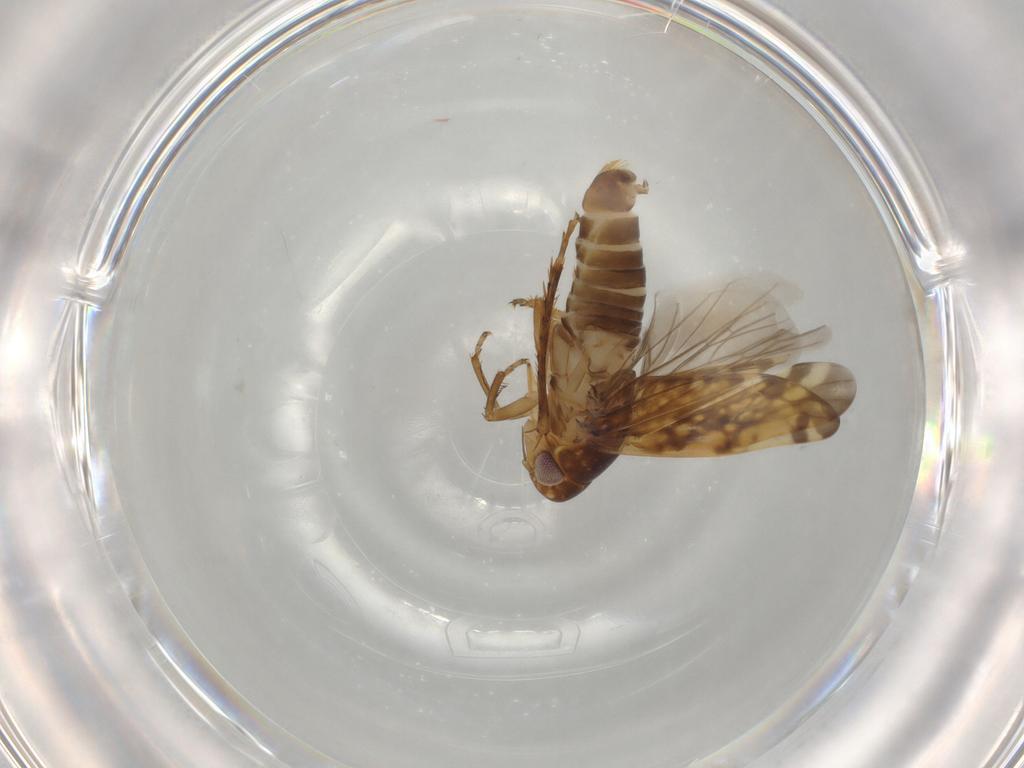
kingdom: Animalia
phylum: Arthropoda
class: Insecta
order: Hemiptera
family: Cicadellidae
